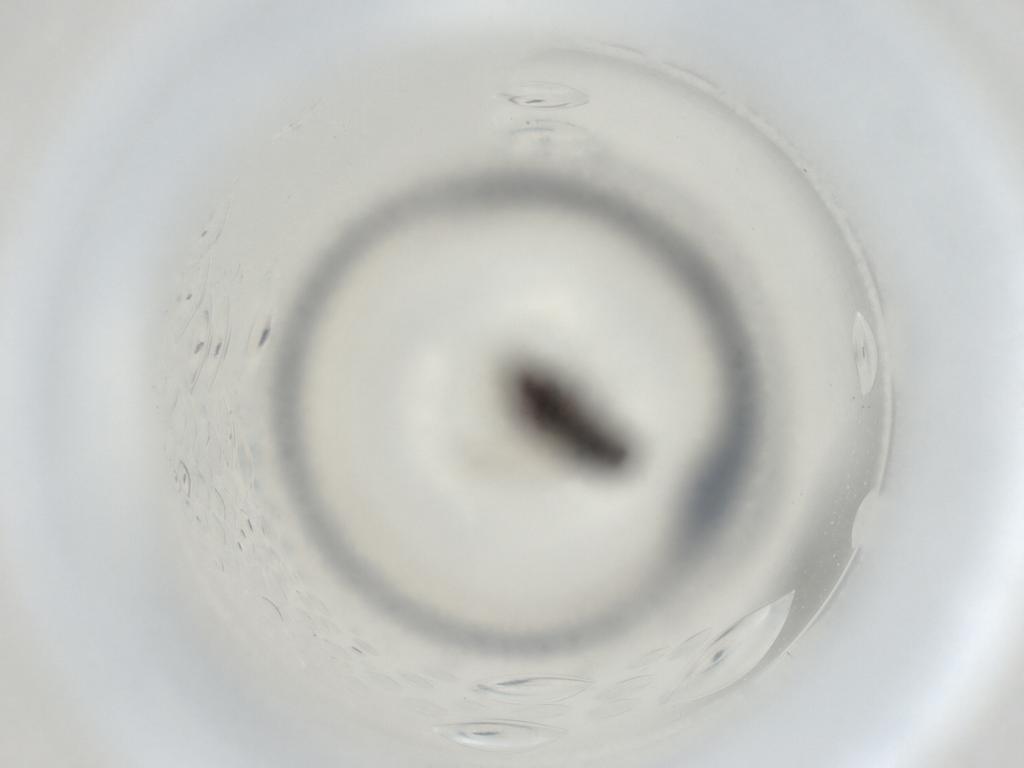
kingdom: Animalia
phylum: Arthropoda
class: Insecta
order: Diptera
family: Milichiidae
